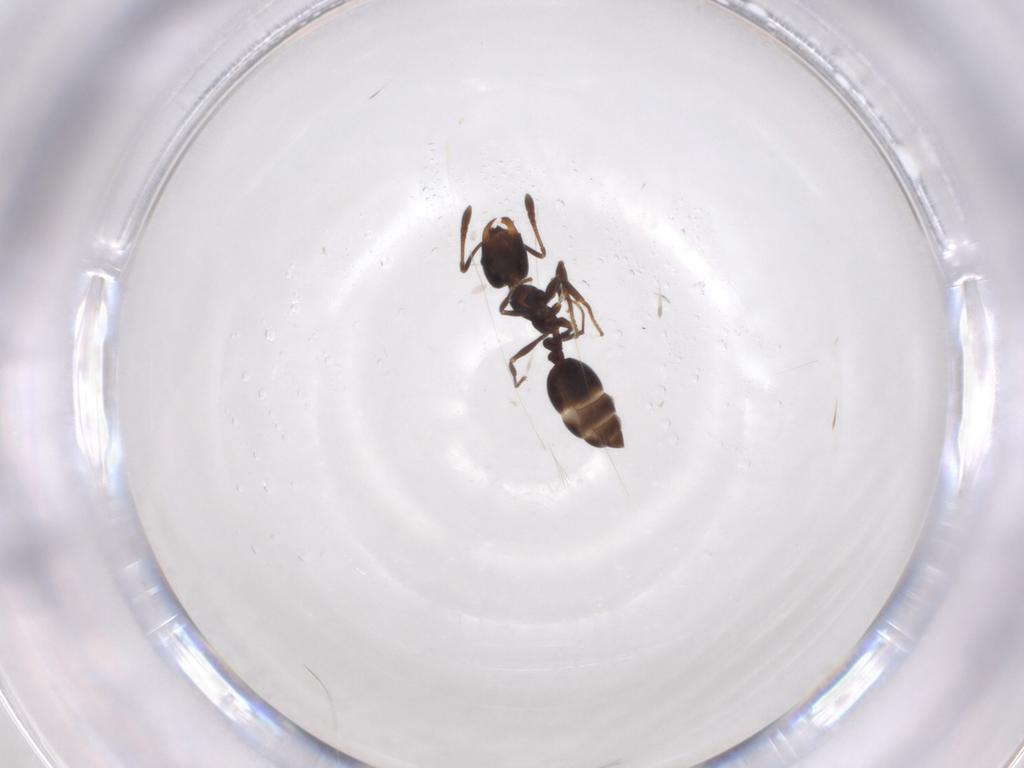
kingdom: Animalia
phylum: Arthropoda
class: Insecta
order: Hymenoptera
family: Formicidae
